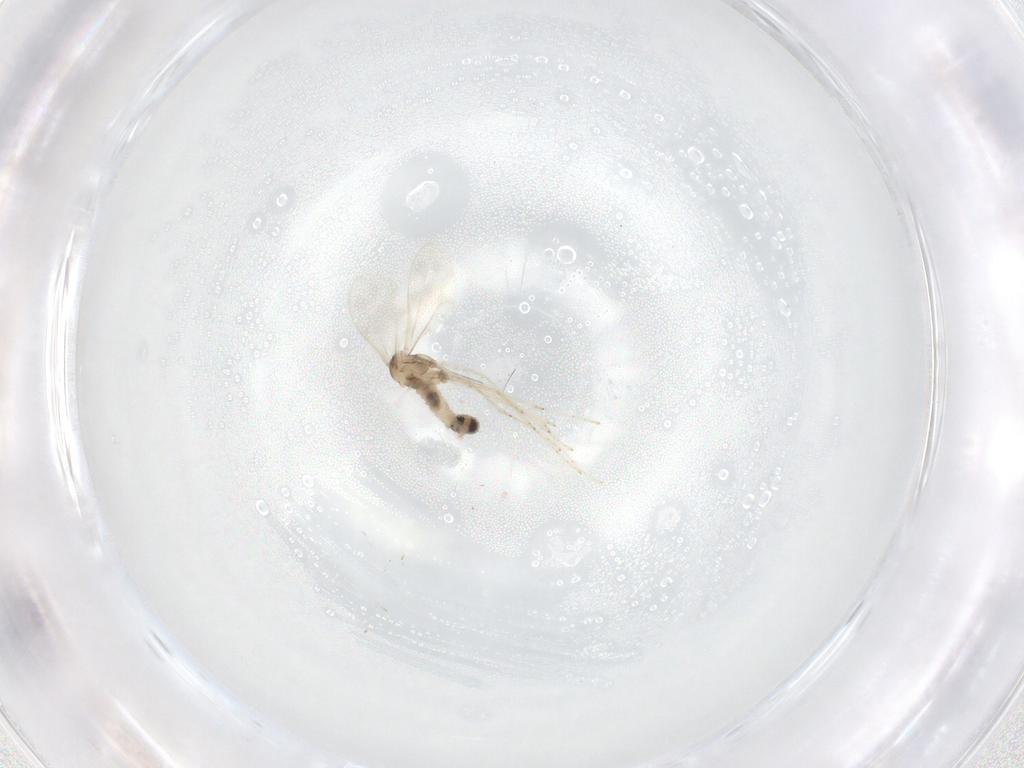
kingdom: Animalia
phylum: Arthropoda
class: Insecta
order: Diptera
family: Cecidomyiidae
